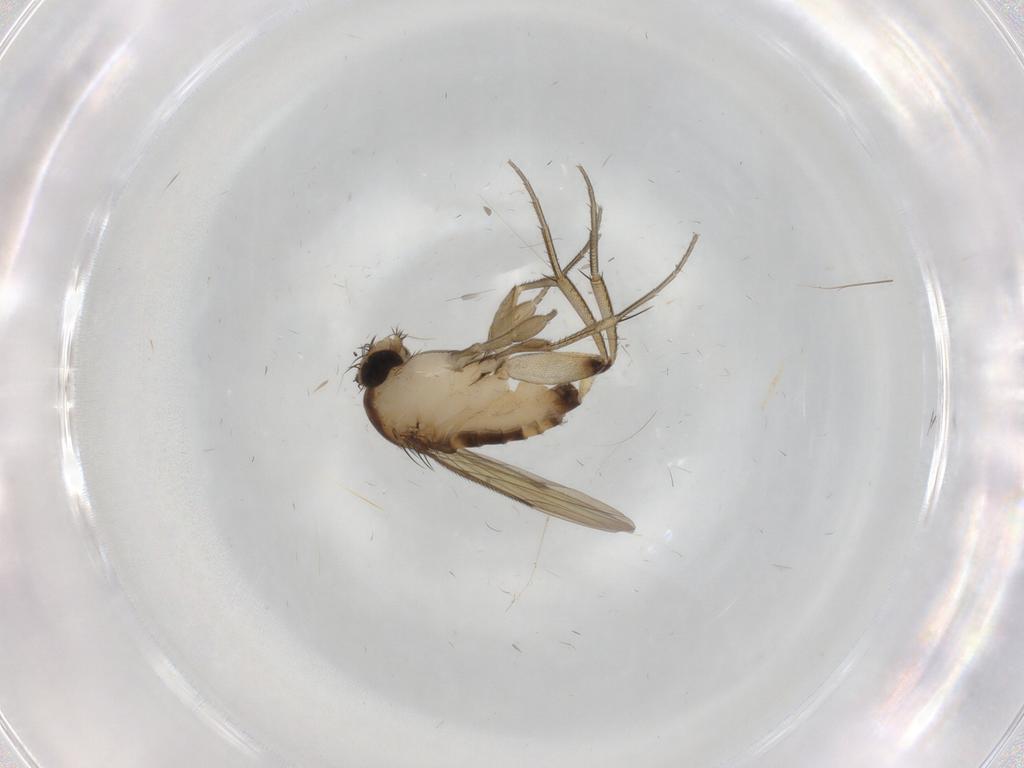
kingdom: Animalia
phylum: Arthropoda
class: Insecta
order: Diptera
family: Phoridae
